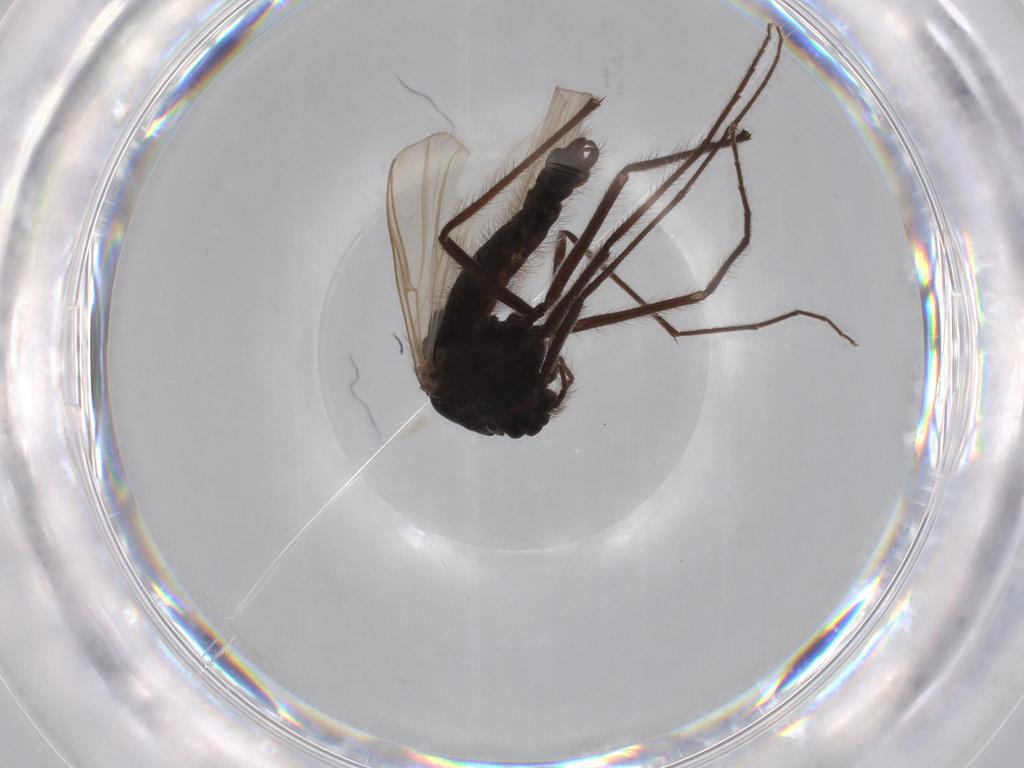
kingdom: Animalia
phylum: Arthropoda
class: Insecta
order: Diptera
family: Cecidomyiidae
